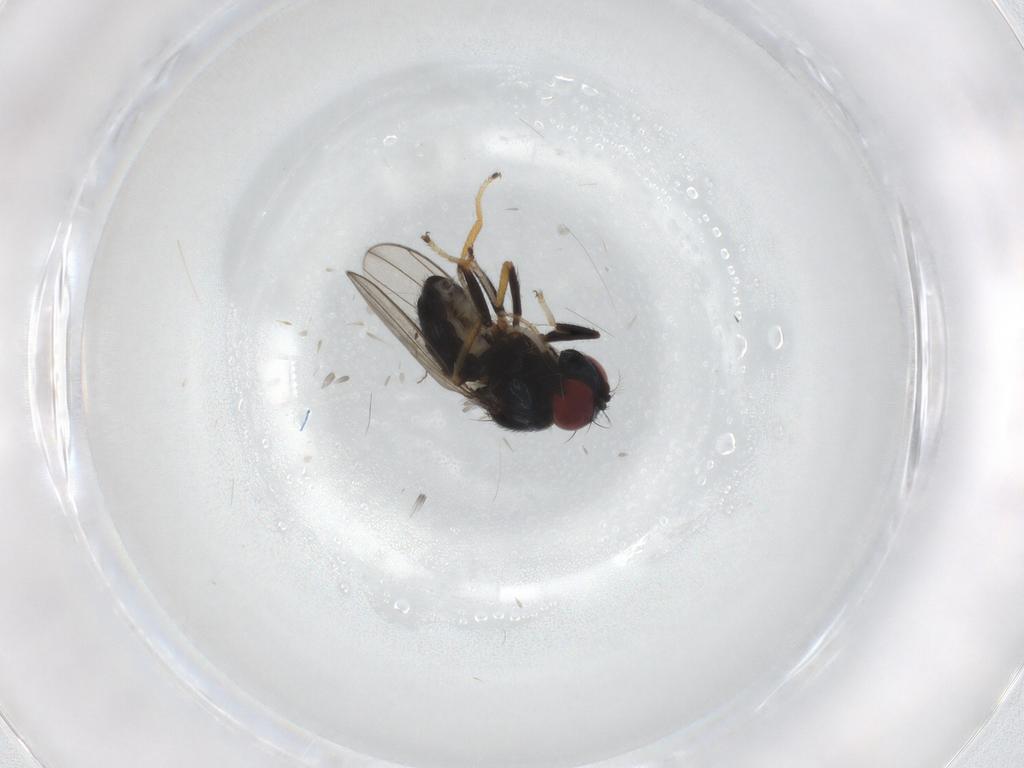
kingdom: Animalia
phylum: Arthropoda
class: Insecta
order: Diptera
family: Ephydridae
